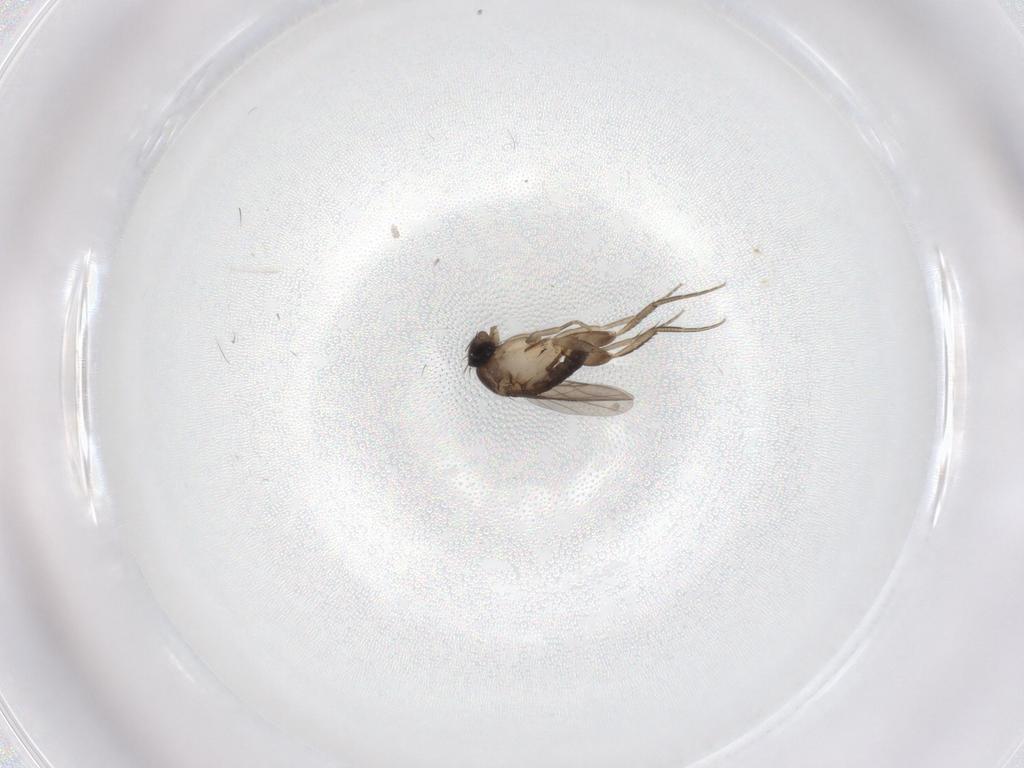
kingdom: Animalia
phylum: Arthropoda
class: Insecta
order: Diptera
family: Phoridae
